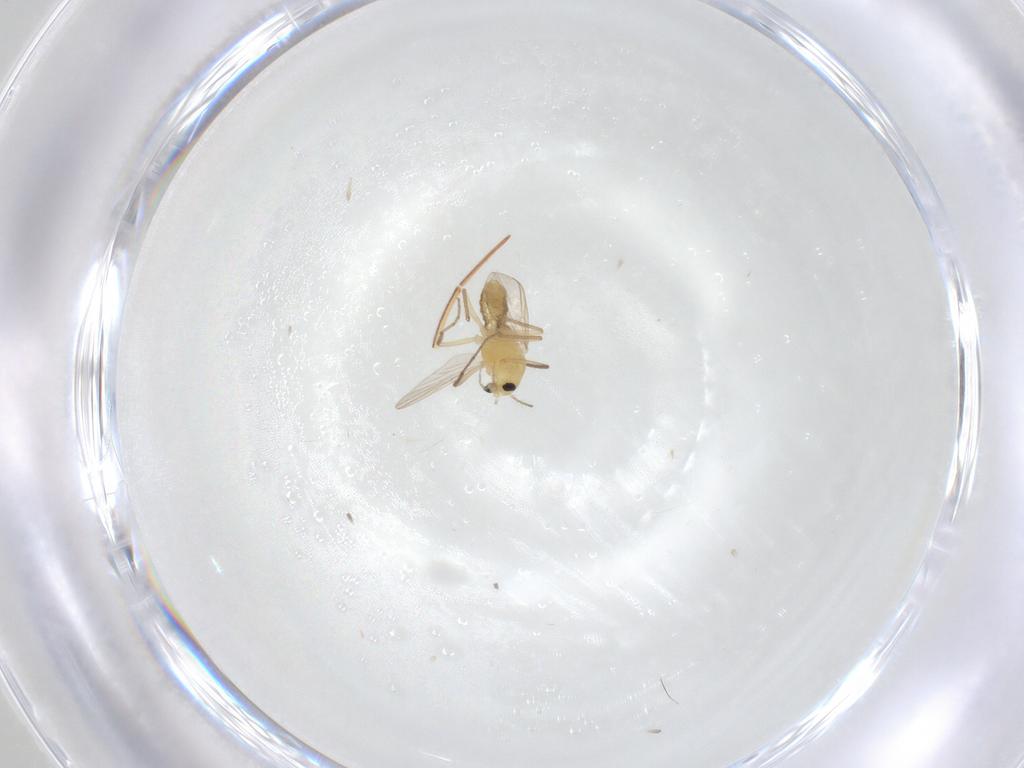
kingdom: Animalia
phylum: Arthropoda
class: Insecta
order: Diptera
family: Chironomidae
